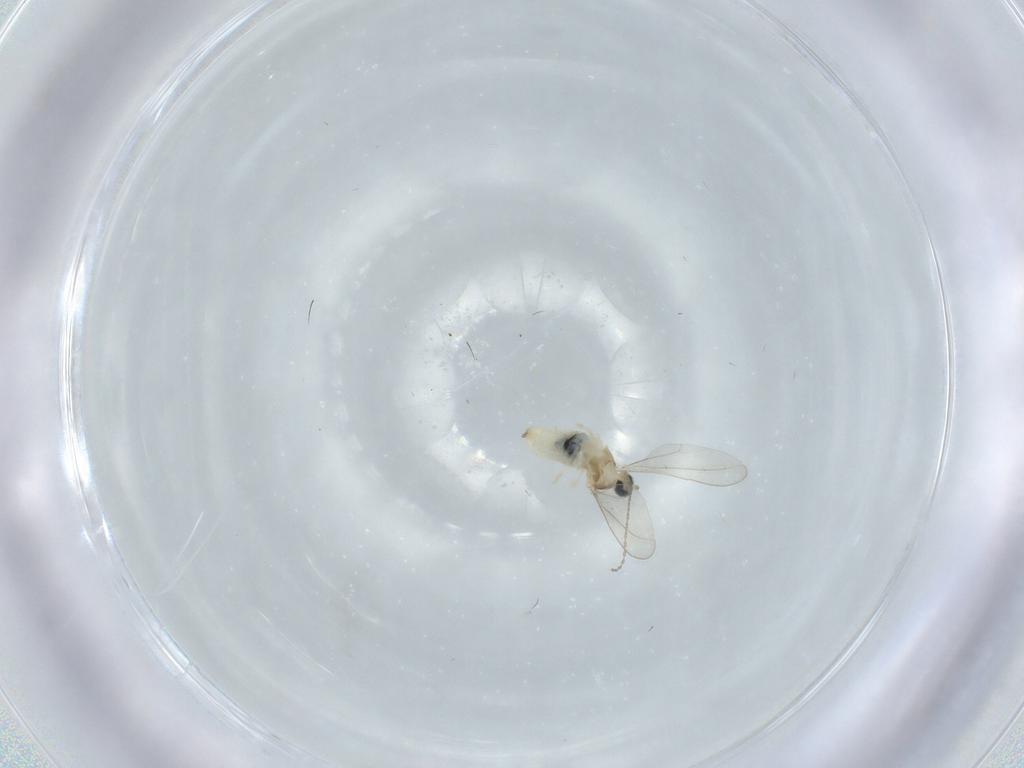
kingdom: Animalia
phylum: Arthropoda
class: Insecta
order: Diptera
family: Cecidomyiidae
